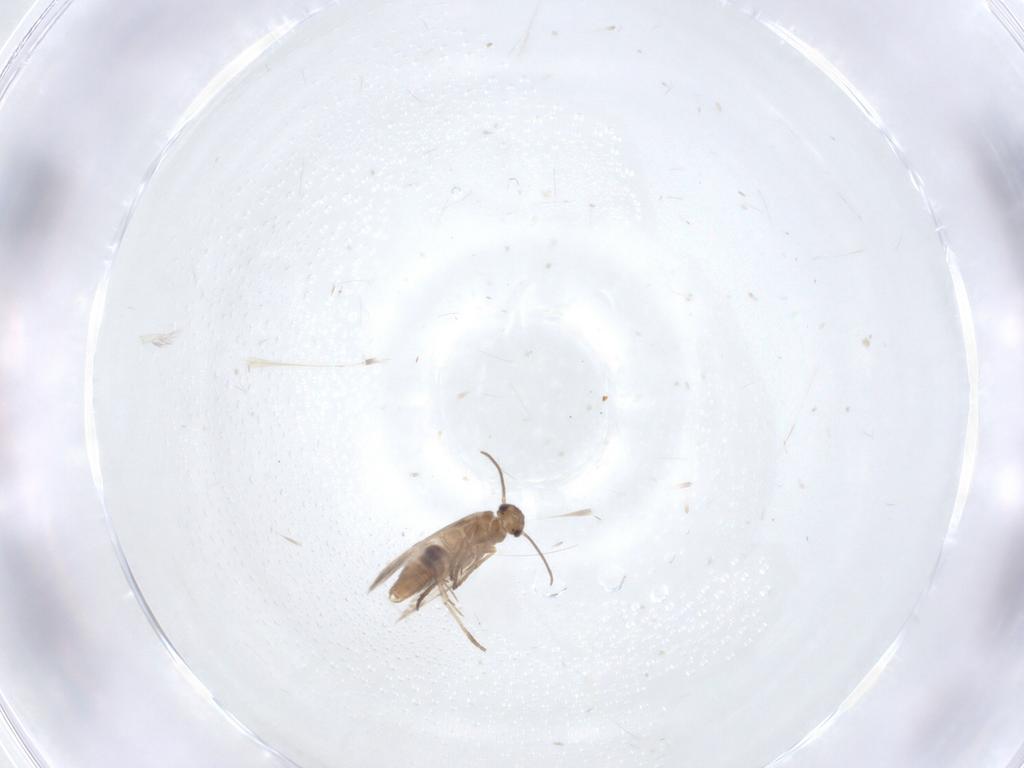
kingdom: Animalia
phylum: Arthropoda
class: Insecta
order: Lepidoptera
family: Heliozelidae
